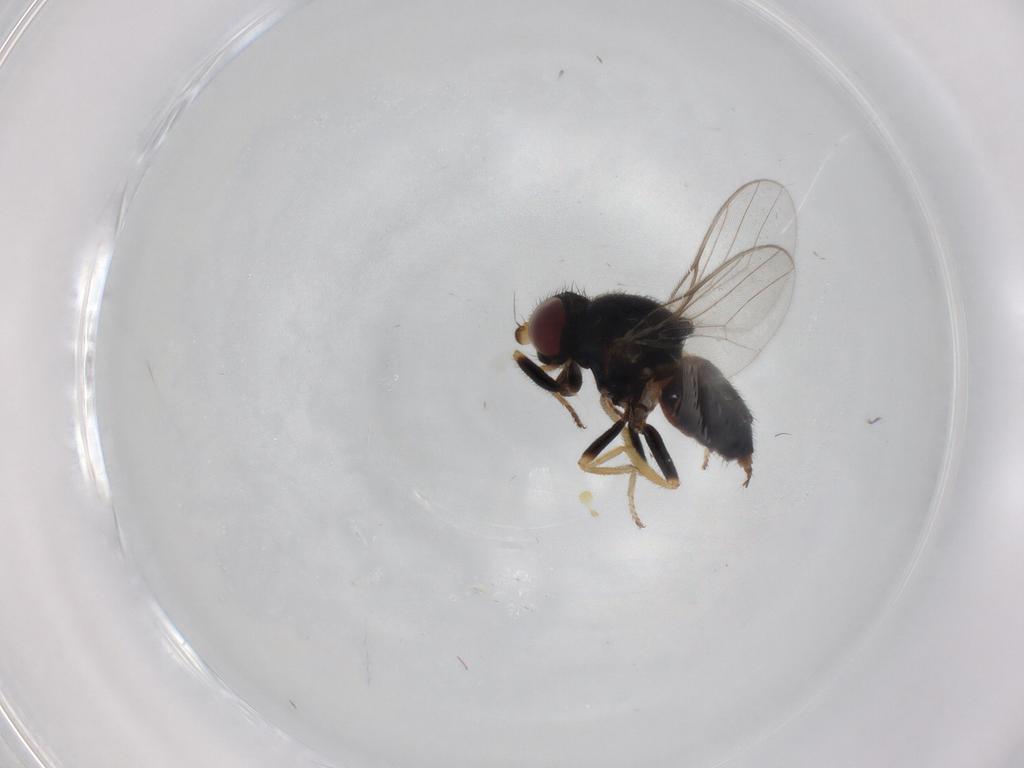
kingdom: Animalia
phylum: Arthropoda
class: Insecta
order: Diptera
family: Chloropidae
